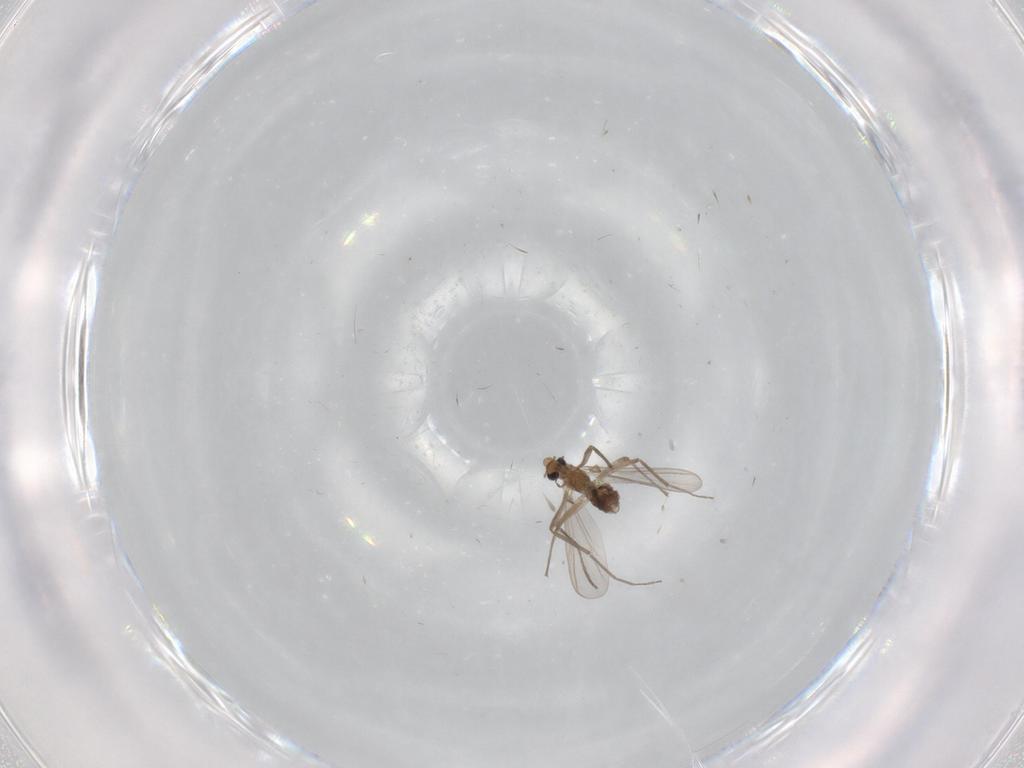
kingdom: Animalia
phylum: Arthropoda
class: Insecta
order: Diptera
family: Chironomidae
